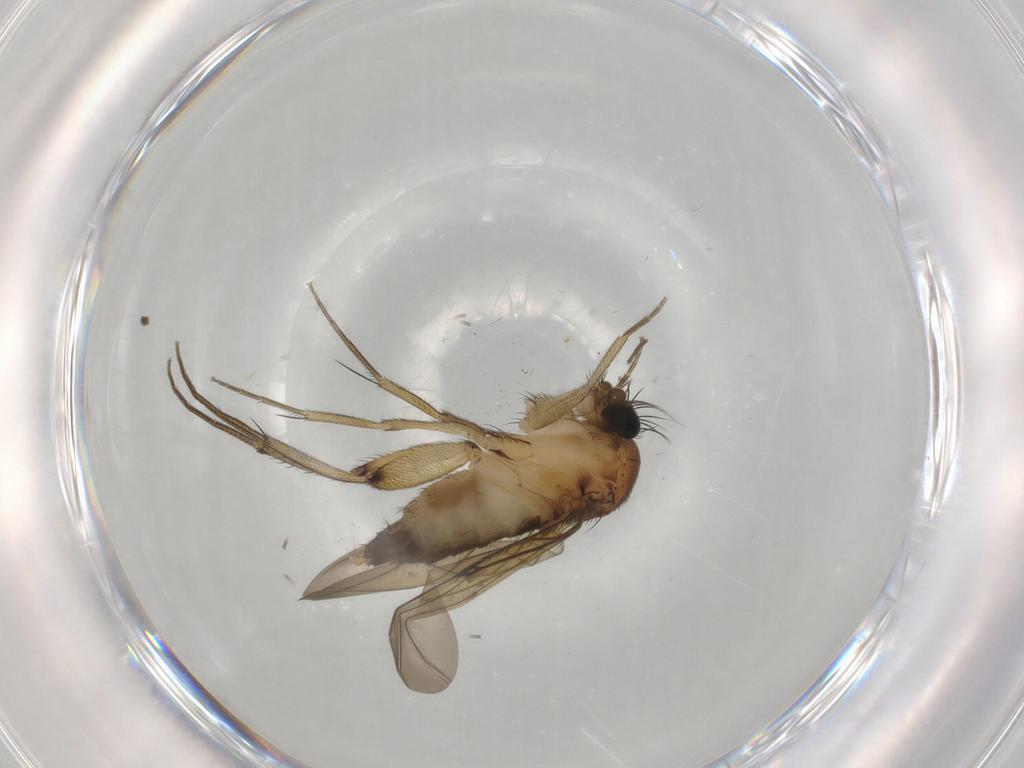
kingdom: Animalia
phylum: Arthropoda
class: Insecta
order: Diptera
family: Phoridae
